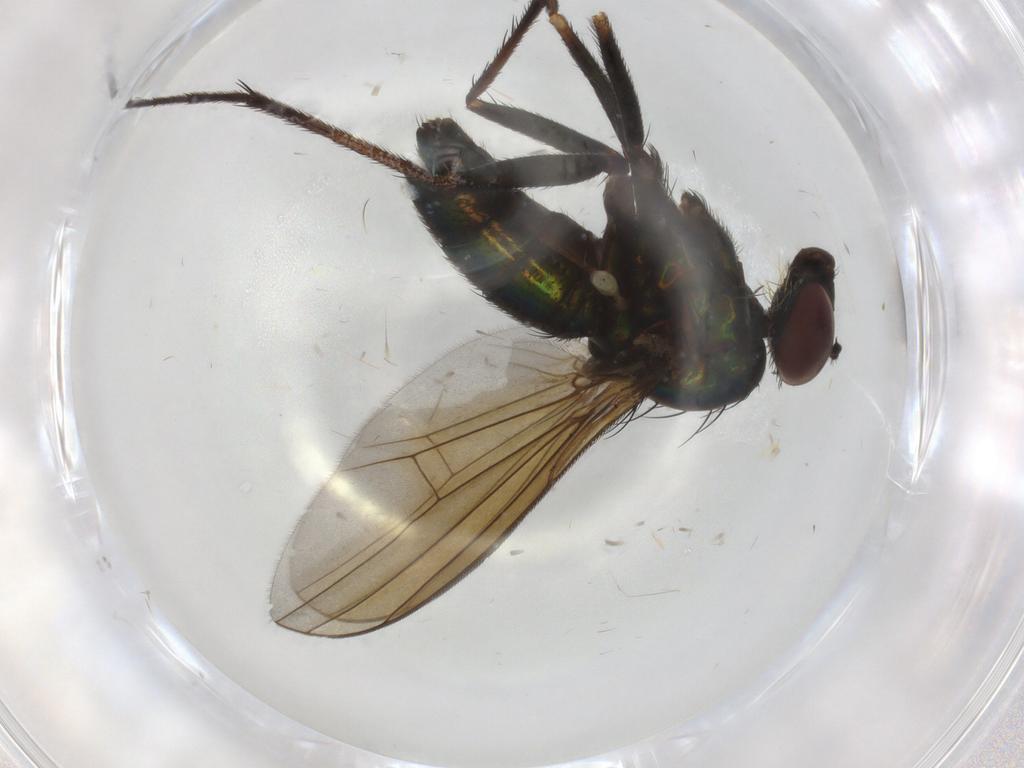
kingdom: Animalia
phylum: Arthropoda
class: Insecta
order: Diptera
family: Dolichopodidae
